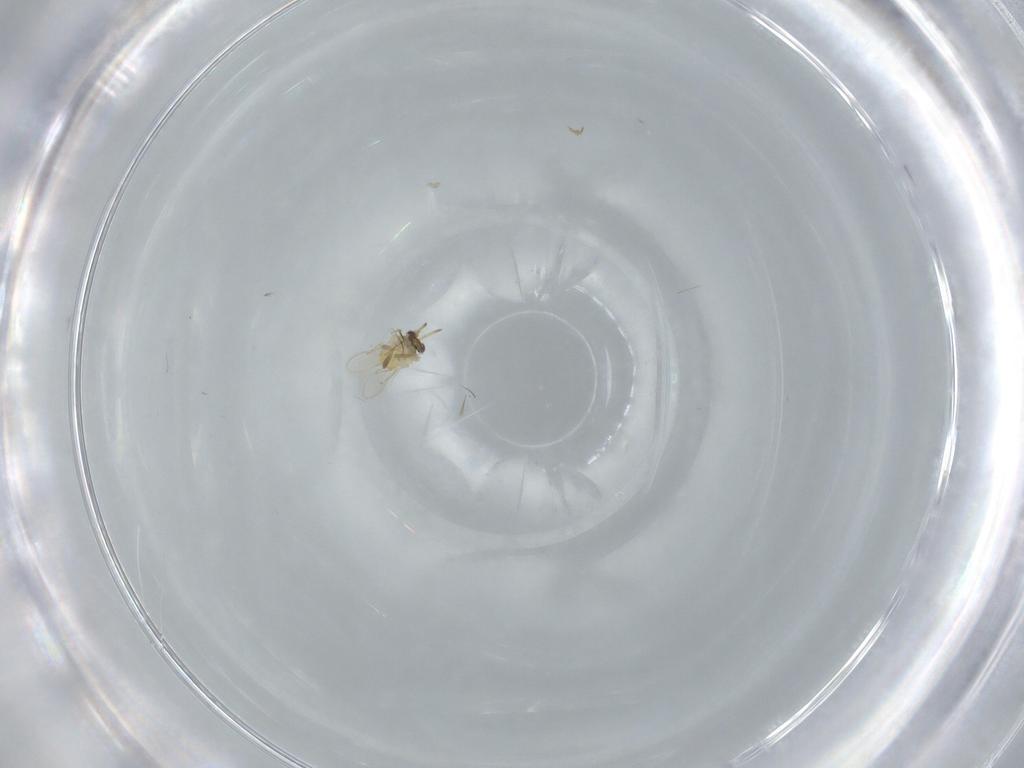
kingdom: Animalia
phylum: Arthropoda
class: Insecta
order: Hymenoptera
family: Aphelinidae
